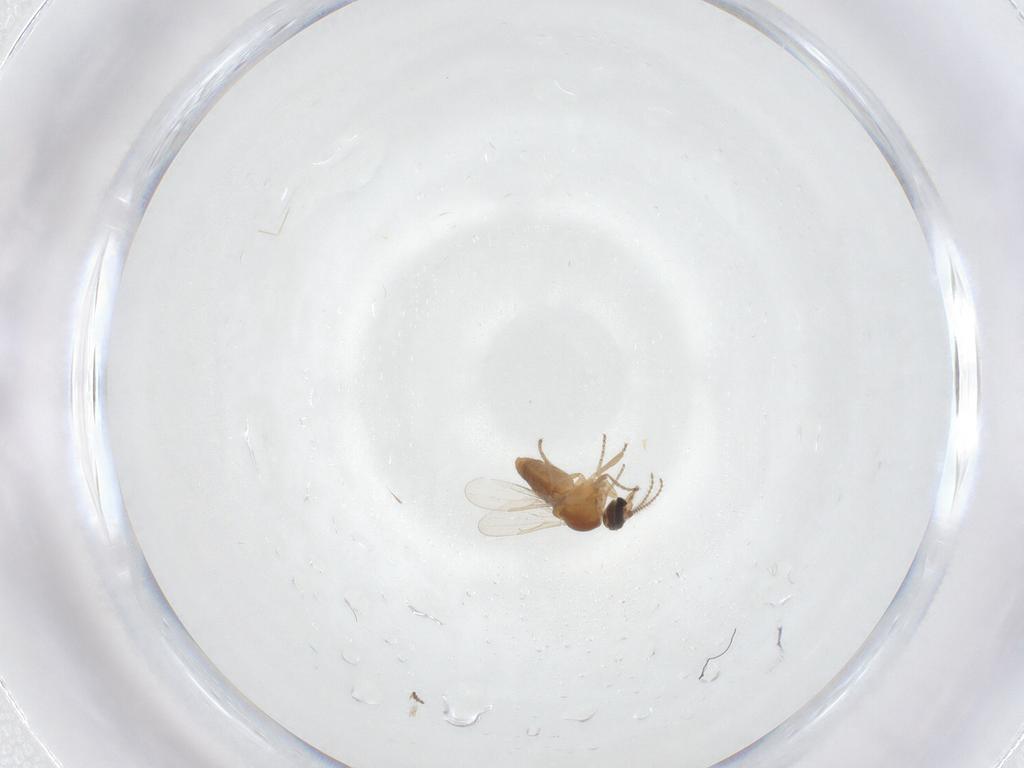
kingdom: Animalia
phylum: Arthropoda
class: Insecta
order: Diptera
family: Ceratopogonidae
